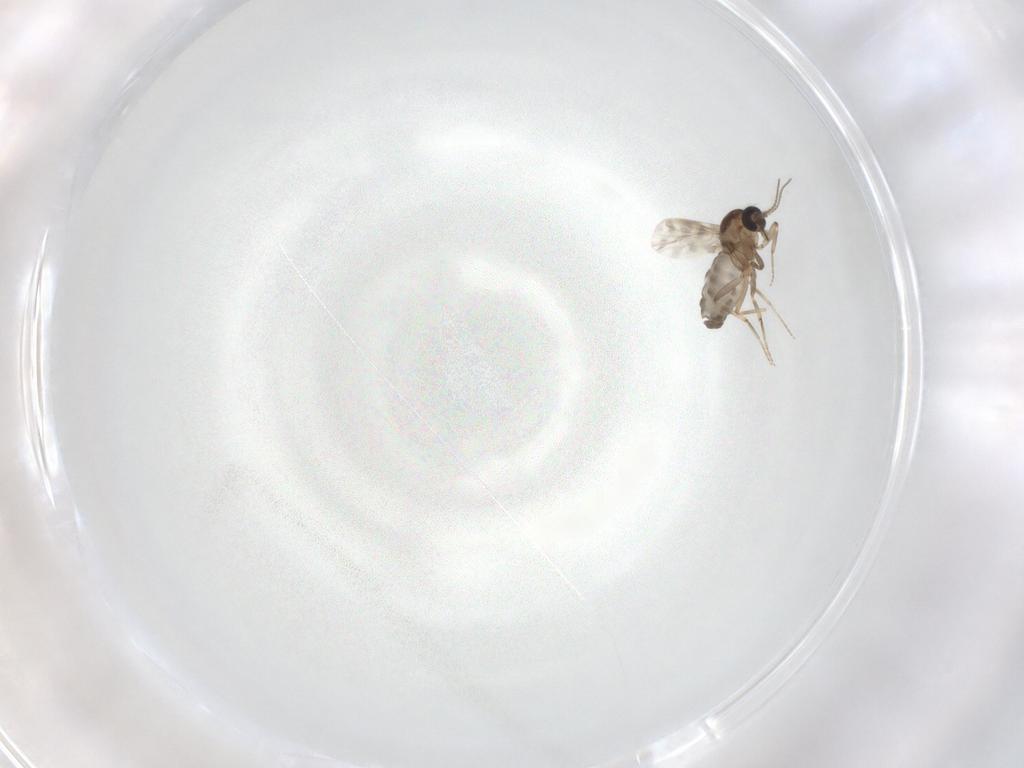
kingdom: Animalia
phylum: Arthropoda
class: Insecta
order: Diptera
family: Ceratopogonidae
